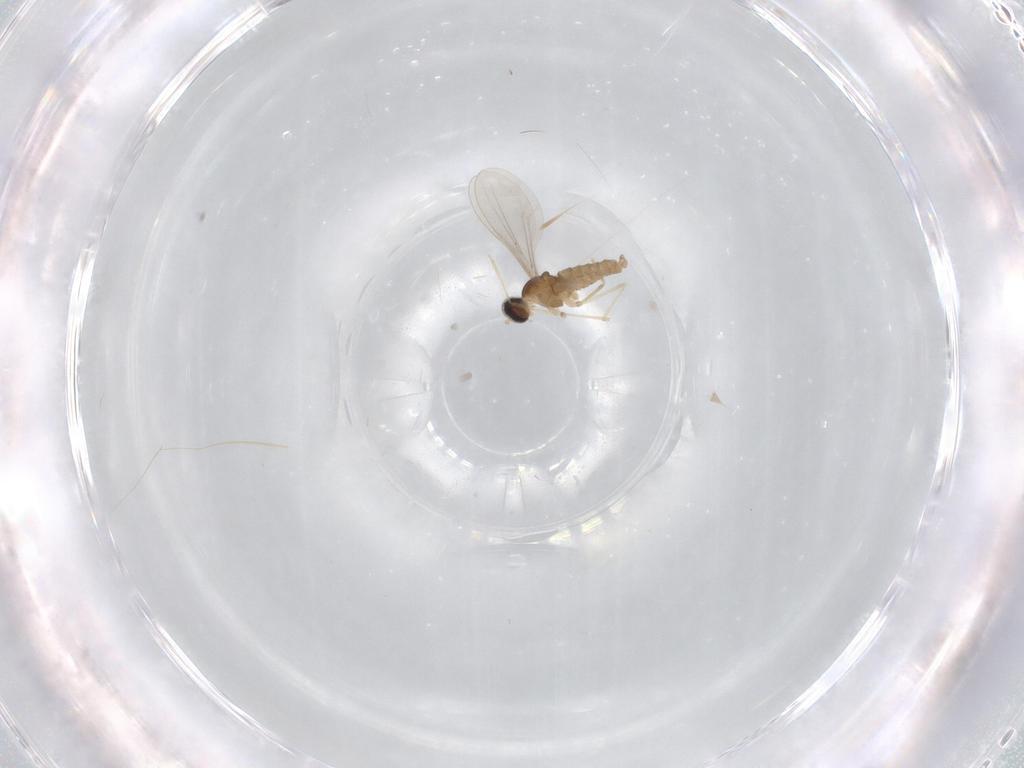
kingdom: Animalia
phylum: Arthropoda
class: Insecta
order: Diptera
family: Cecidomyiidae
